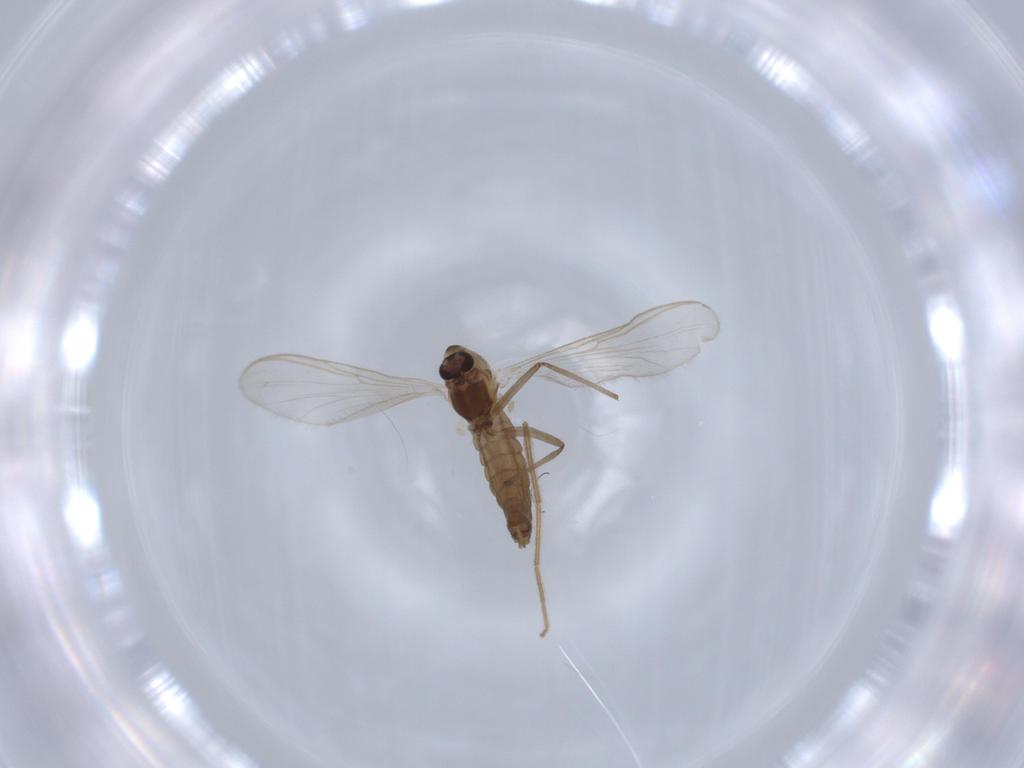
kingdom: Animalia
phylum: Arthropoda
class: Insecta
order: Diptera
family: Chironomidae
